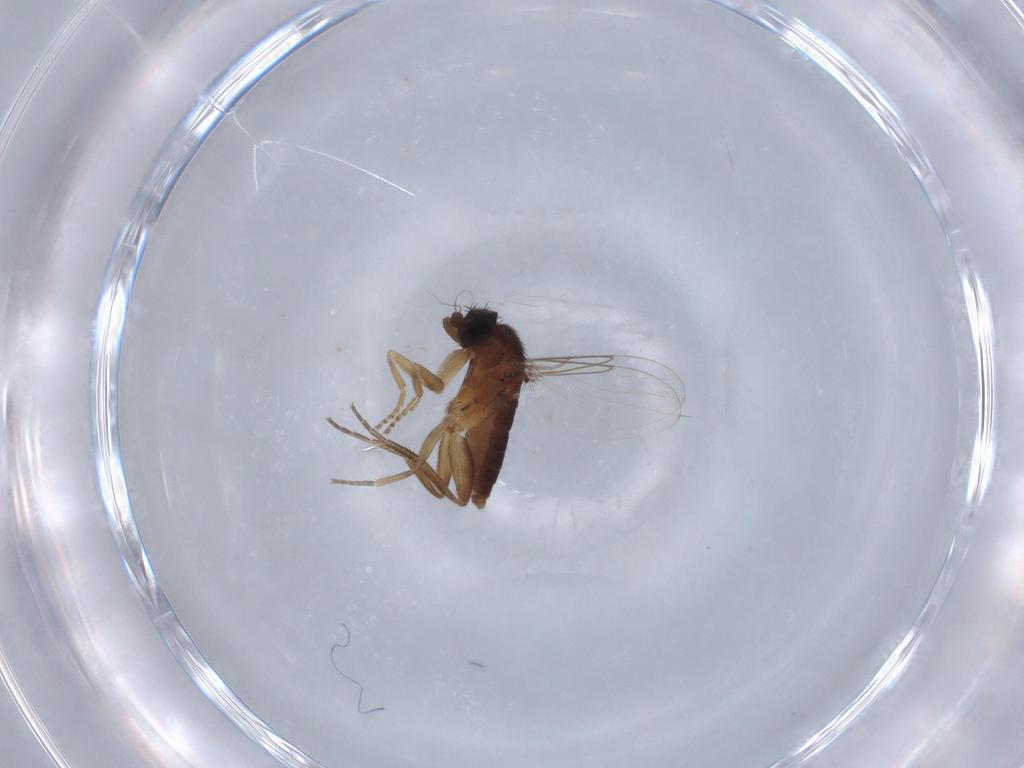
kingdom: Animalia
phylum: Arthropoda
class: Insecta
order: Diptera
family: Phoridae
